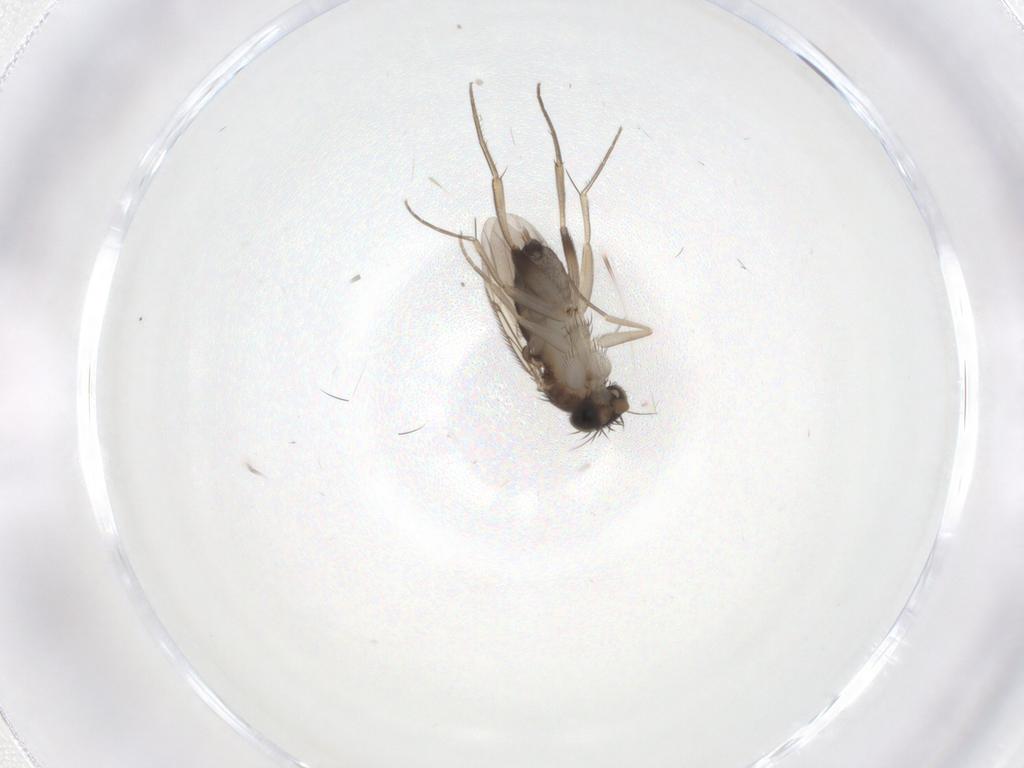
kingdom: Animalia
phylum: Arthropoda
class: Insecta
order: Diptera
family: Phoridae
